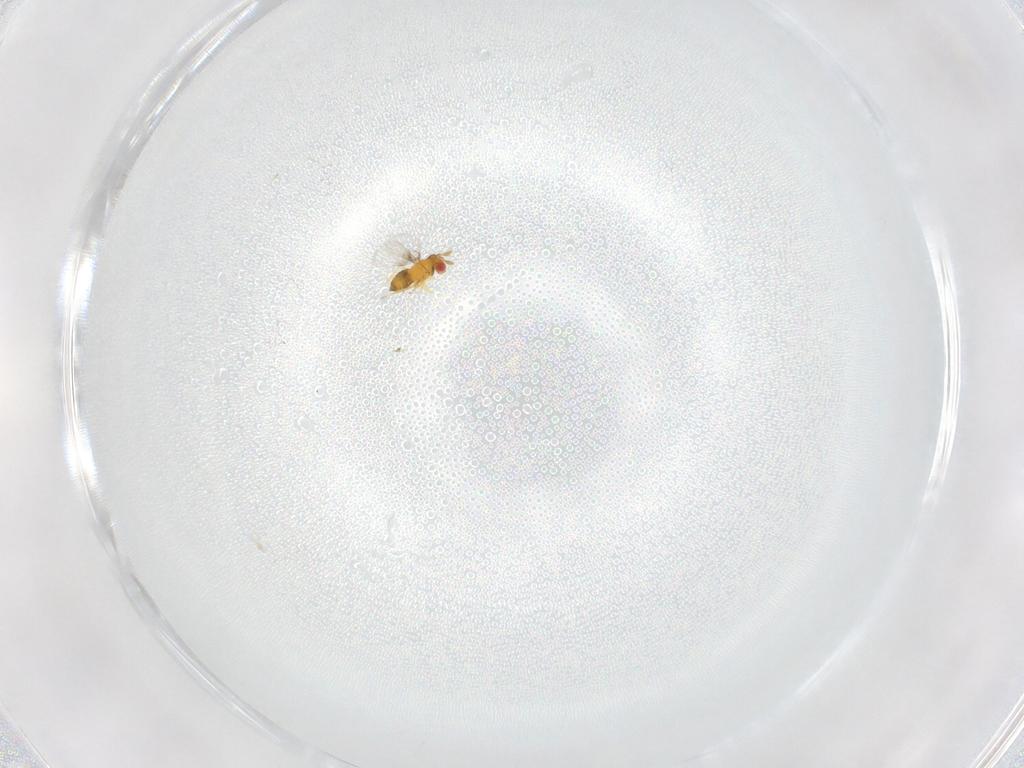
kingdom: Animalia
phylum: Arthropoda
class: Insecta
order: Hymenoptera
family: Trichogrammatidae
